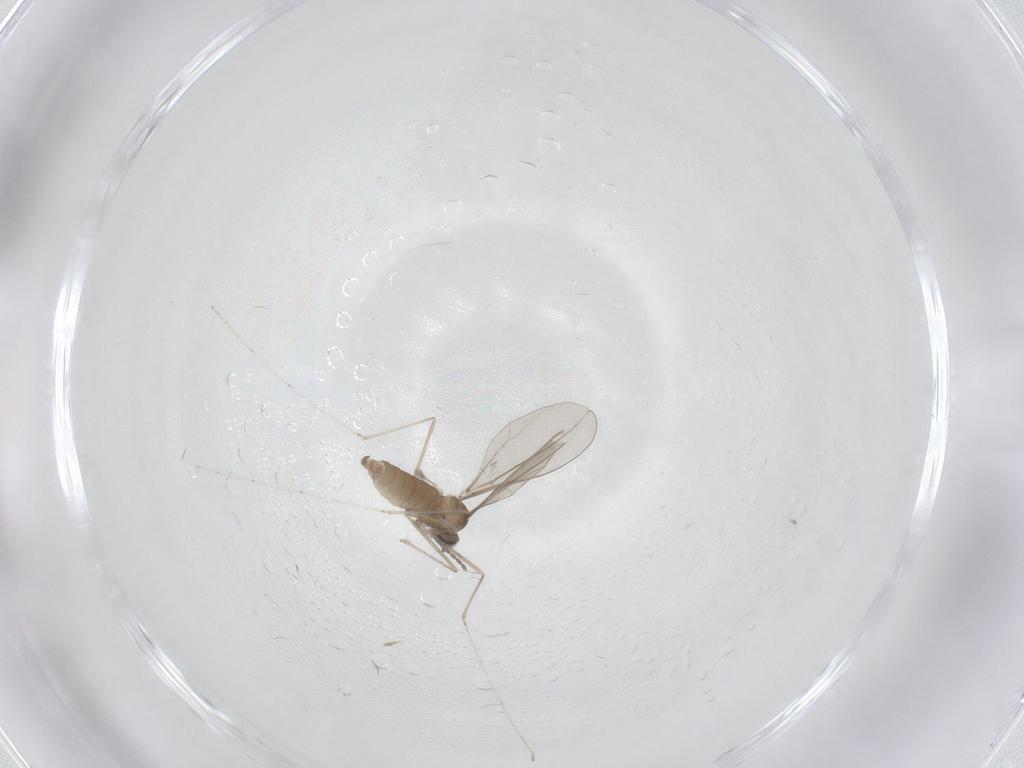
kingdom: Animalia
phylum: Arthropoda
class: Insecta
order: Diptera
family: Cecidomyiidae
